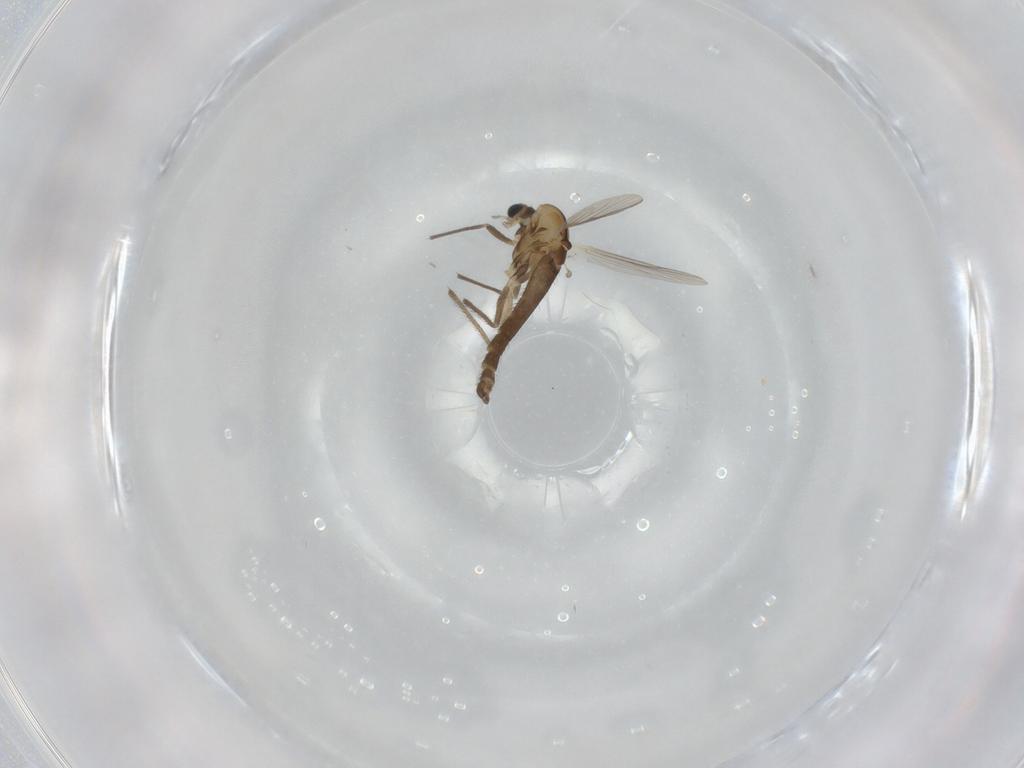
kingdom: Animalia
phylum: Arthropoda
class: Insecta
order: Diptera
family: Chironomidae
